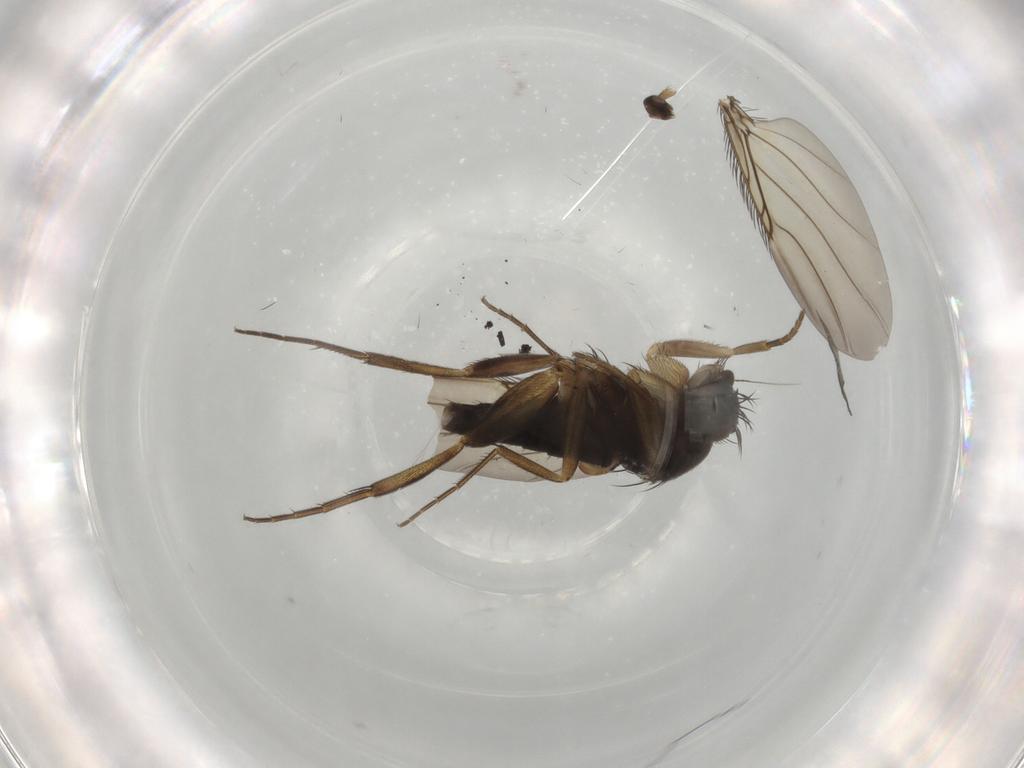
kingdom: Animalia
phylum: Arthropoda
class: Insecta
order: Diptera
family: Phoridae
